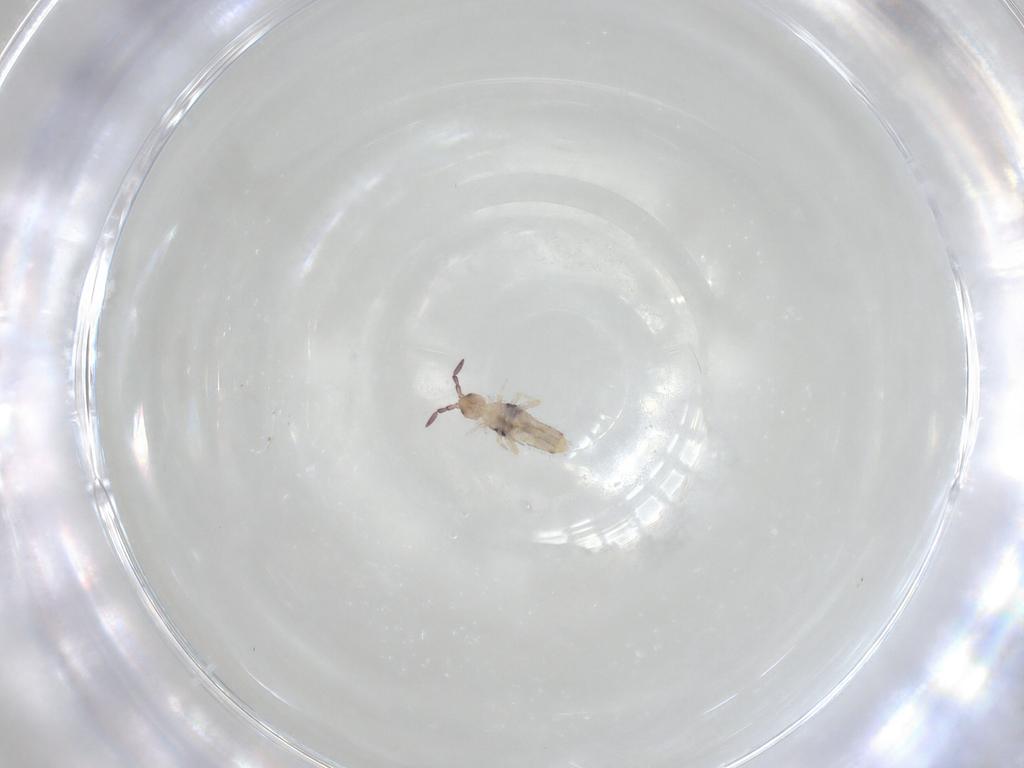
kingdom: Animalia
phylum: Arthropoda
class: Collembola
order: Entomobryomorpha
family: Entomobryidae
